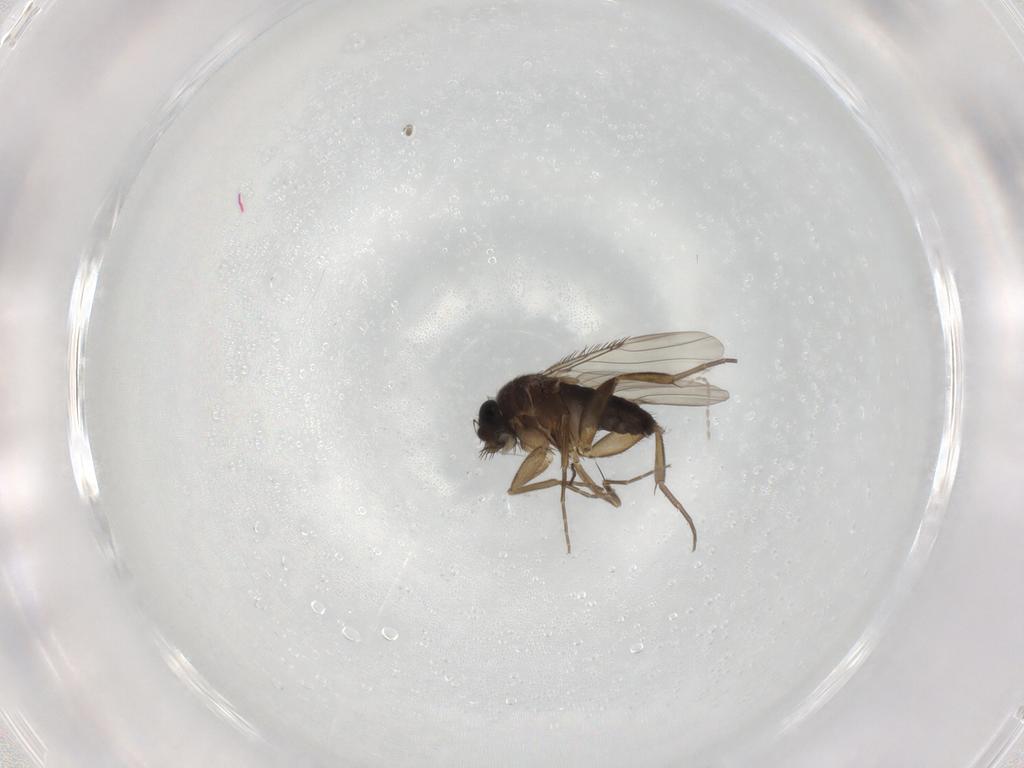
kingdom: Animalia
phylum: Arthropoda
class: Insecta
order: Diptera
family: Phoridae
